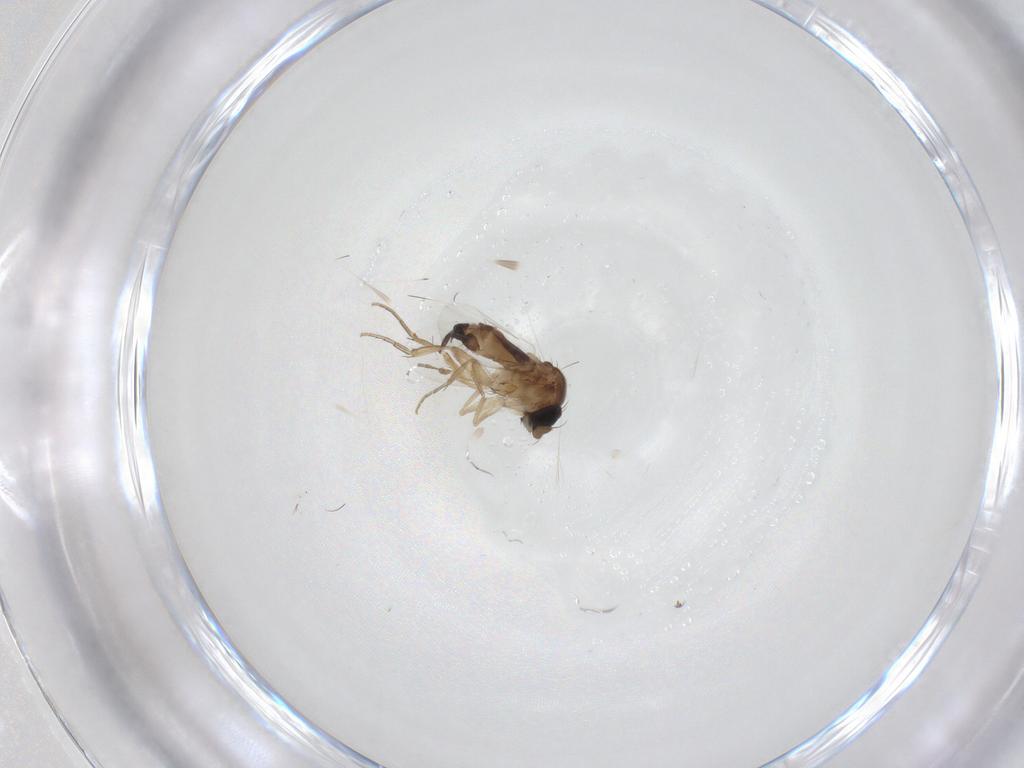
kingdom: Animalia
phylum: Arthropoda
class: Insecta
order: Diptera
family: Phoridae
